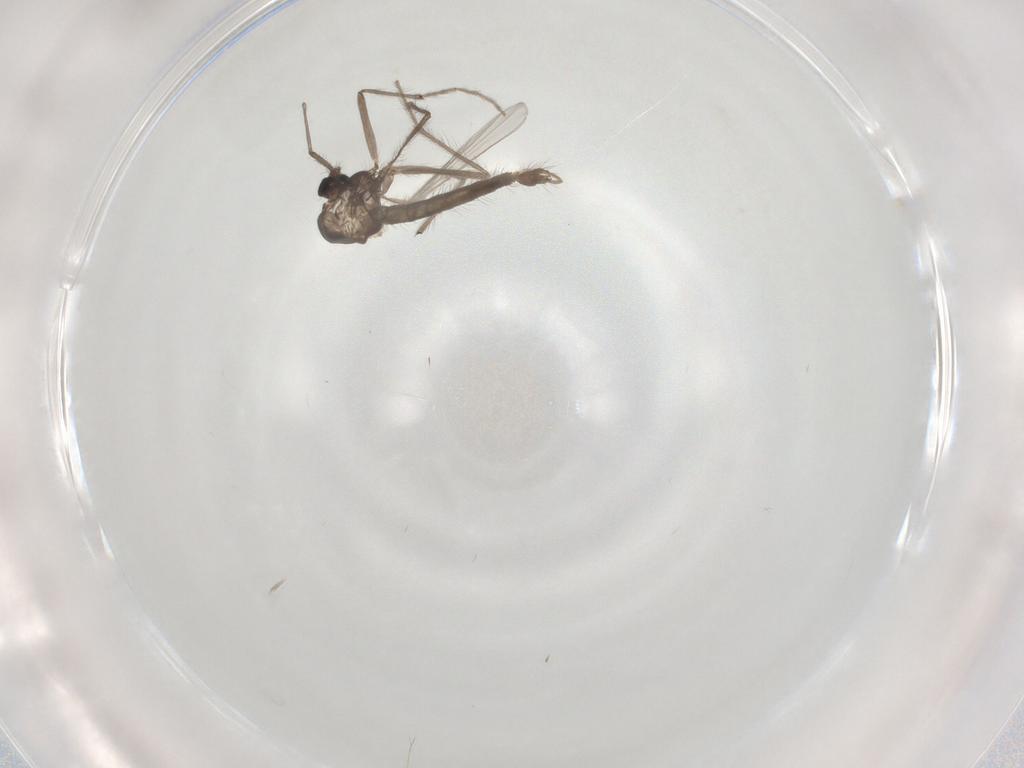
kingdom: Animalia
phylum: Arthropoda
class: Insecta
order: Diptera
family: Chironomidae
